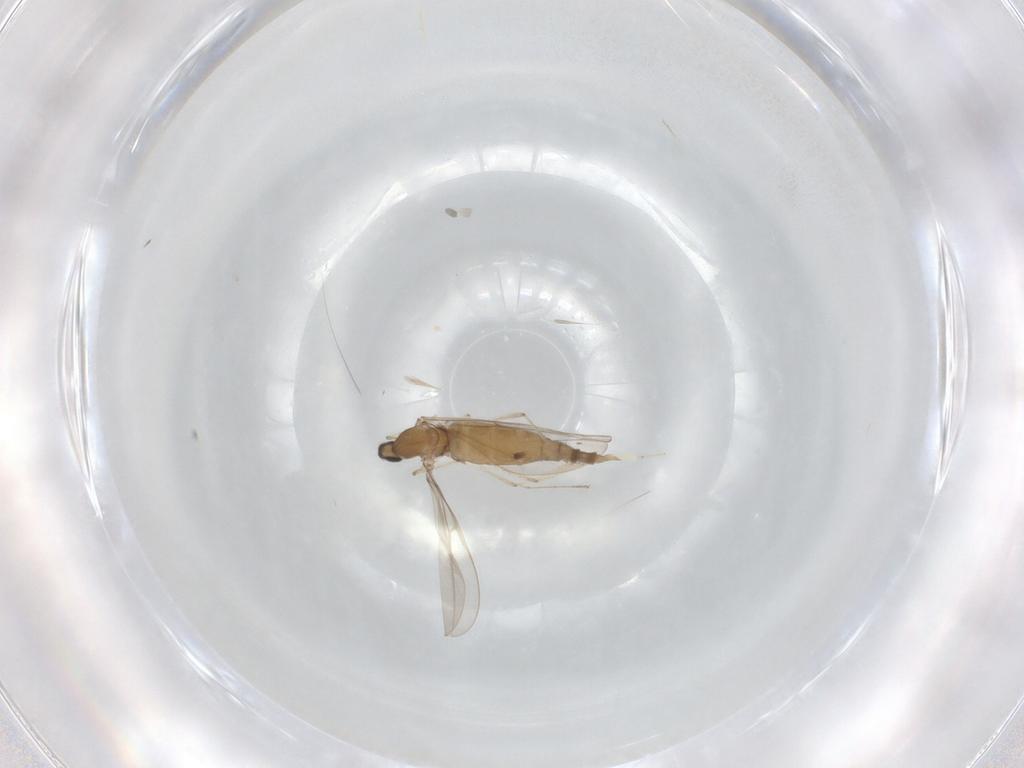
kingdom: Animalia
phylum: Arthropoda
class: Insecta
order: Diptera
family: Cecidomyiidae
